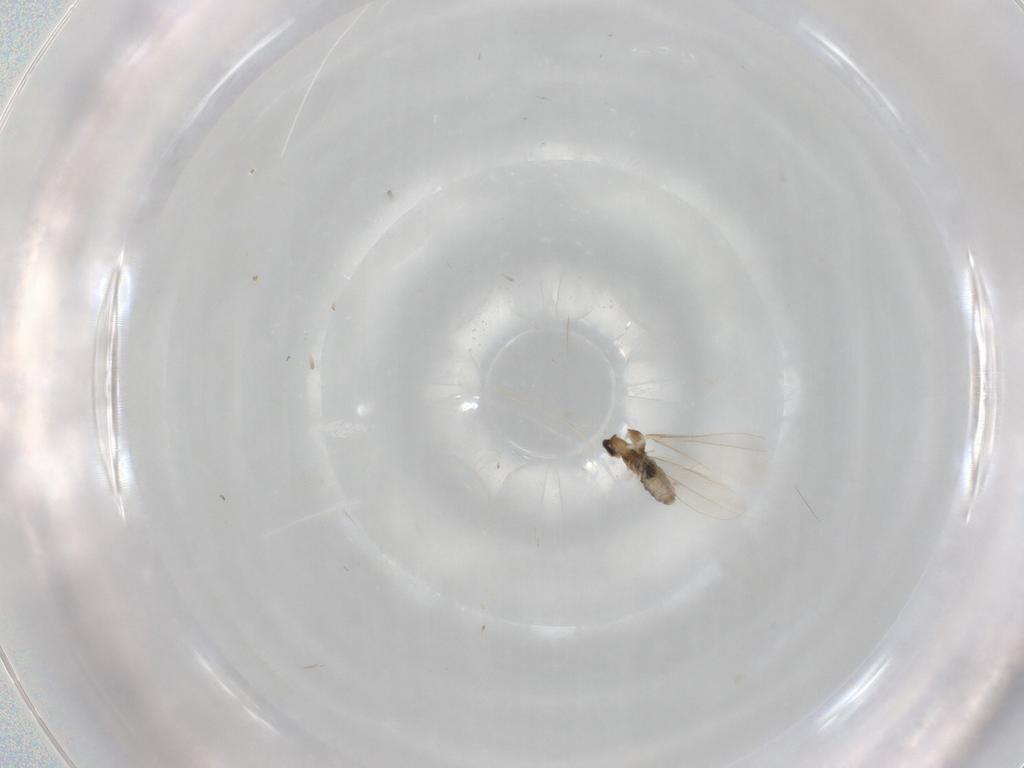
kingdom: Animalia
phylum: Arthropoda
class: Insecta
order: Diptera
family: Cecidomyiidae
